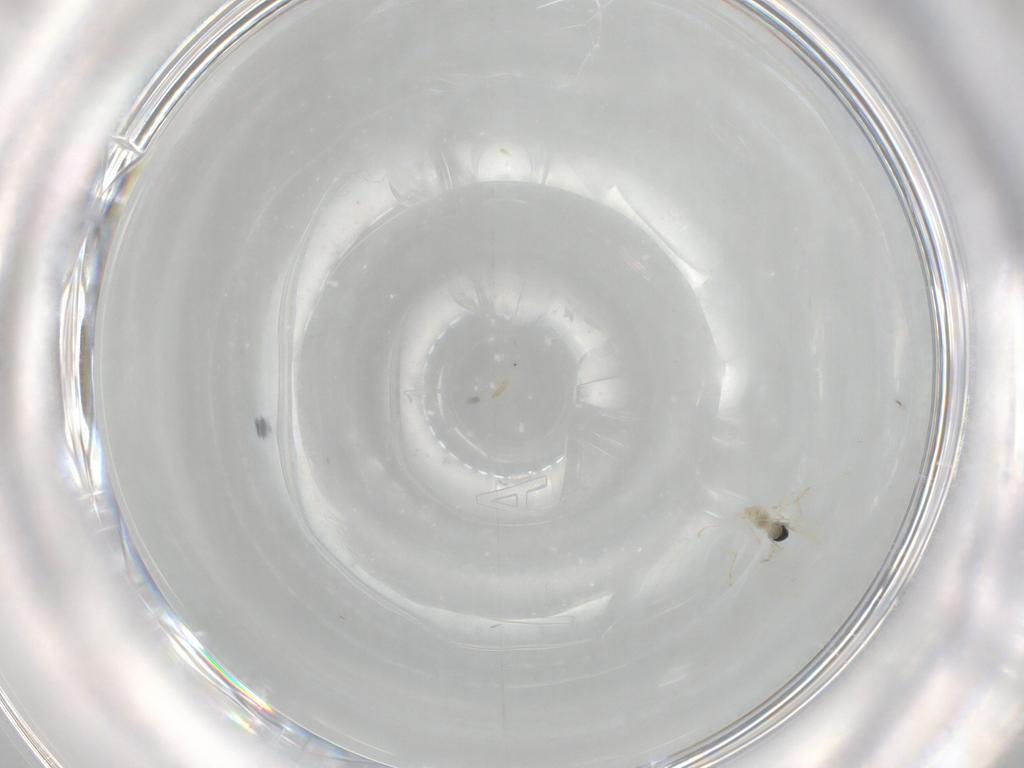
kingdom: Animalia
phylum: Arthropoda
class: Insecta
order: Diptera
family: Cecidomyiidae
